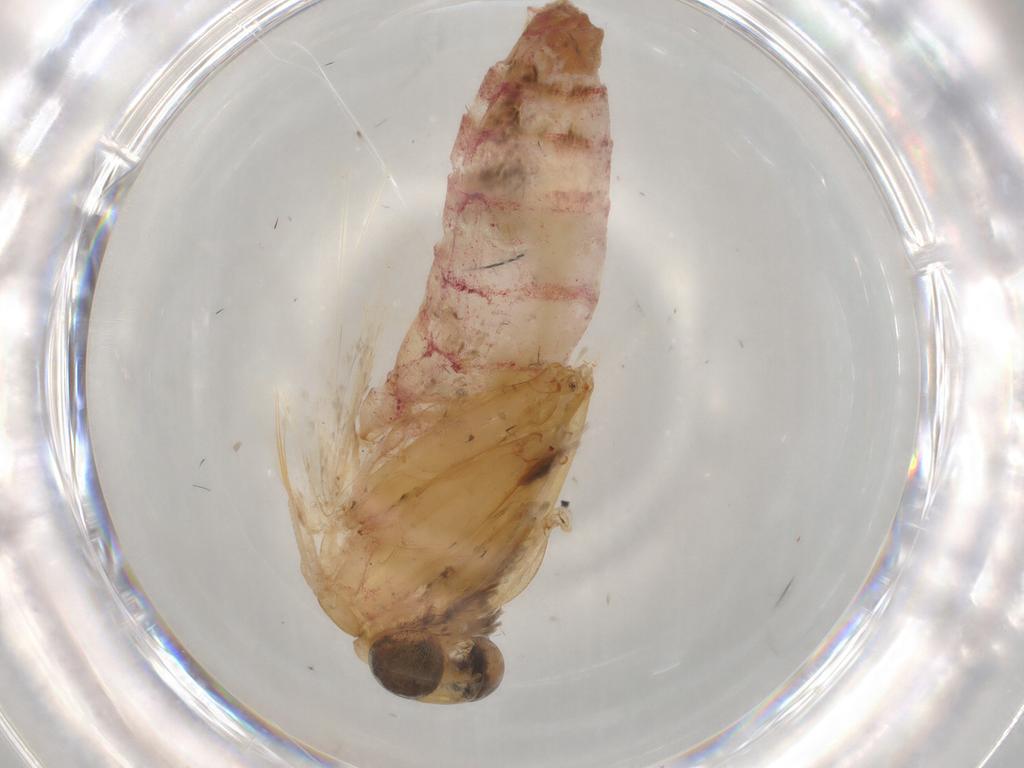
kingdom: Animalia
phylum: Arthropoda
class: Insecta
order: Lepidoptera
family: Erebidae
